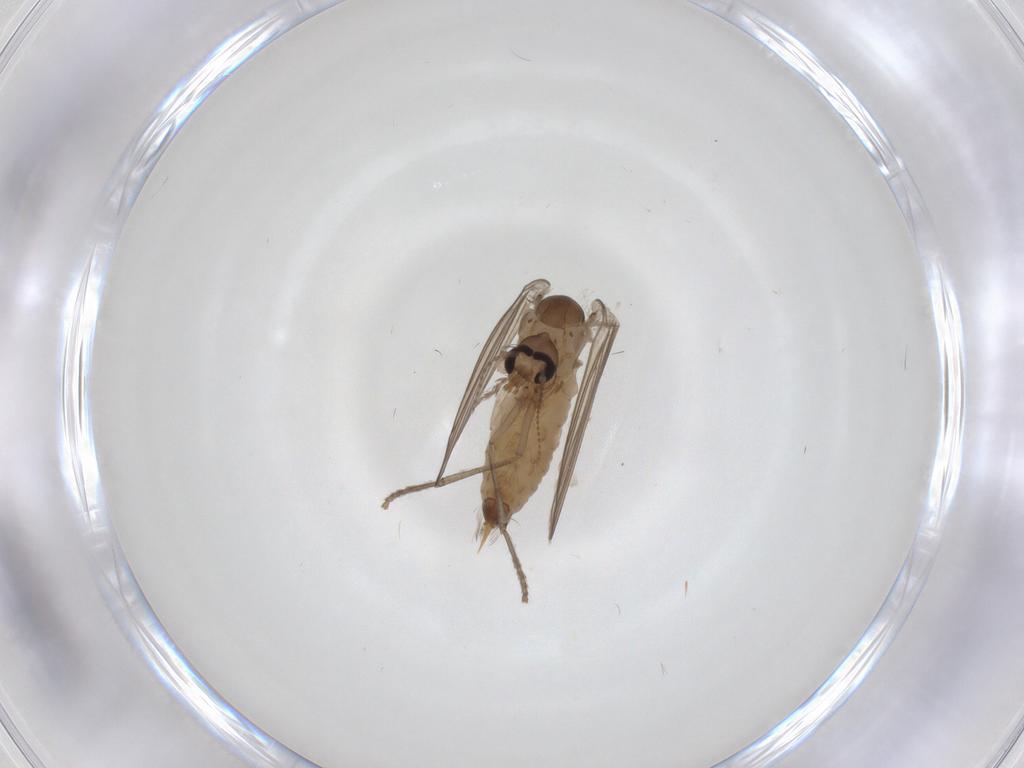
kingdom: Animalia
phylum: Arthropoda
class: Insecta
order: Diptera
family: Psychodidae
